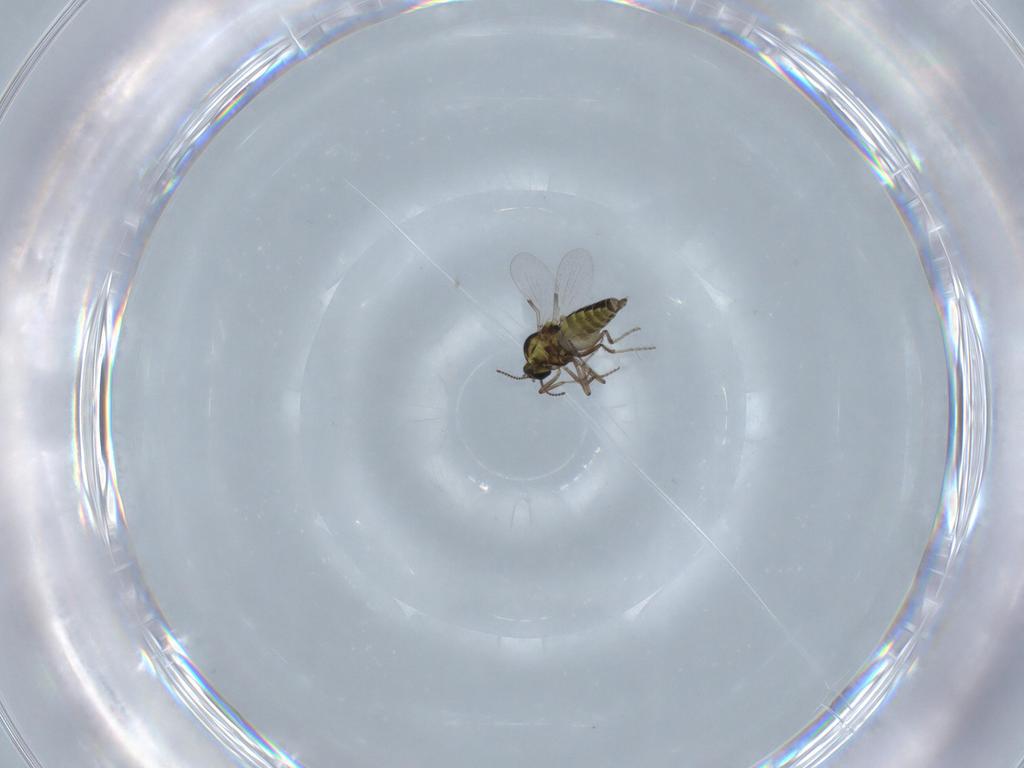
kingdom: Animalia
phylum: Arthropoda
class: Insecta
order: Diptera
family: Ceratopogonidae
